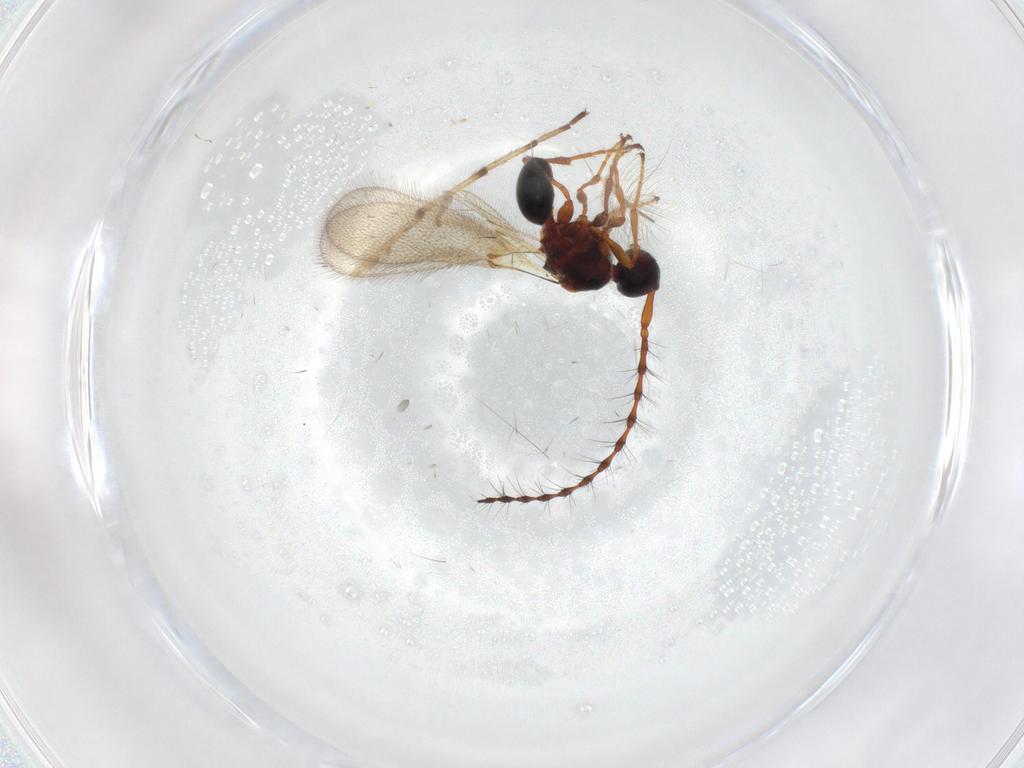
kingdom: Animalia
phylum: Arthropoda
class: Insecta
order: Hymenoptera
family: Diapriidae
